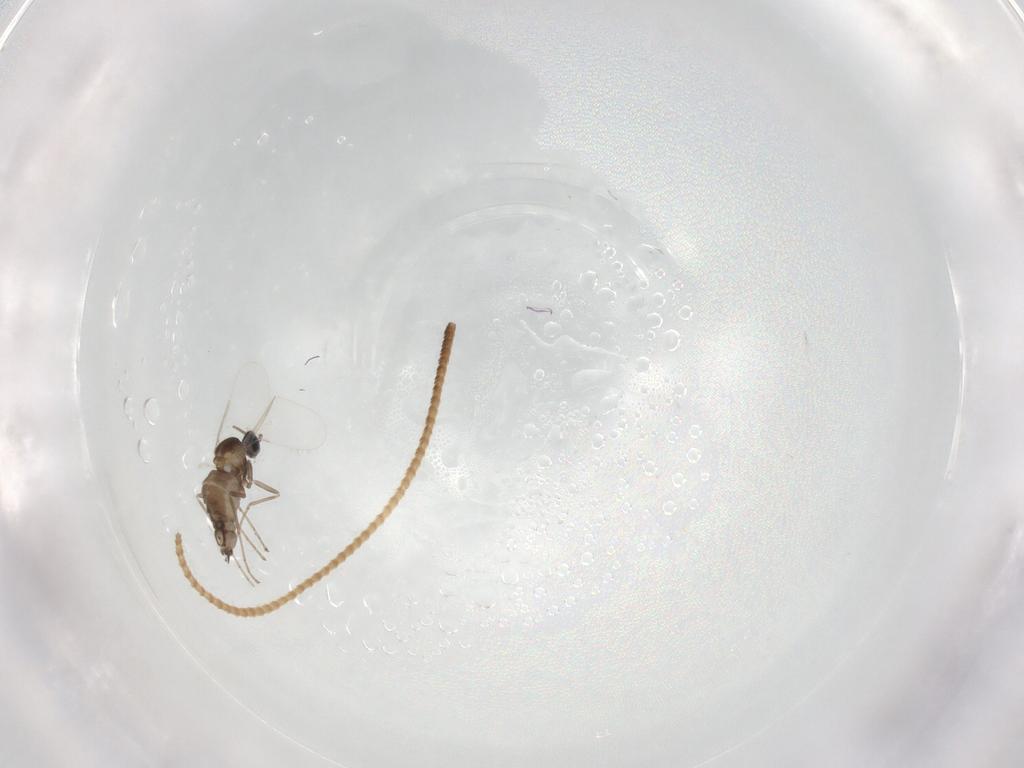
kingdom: Animalia
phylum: Arthropoda
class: Insecta
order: Diptera
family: Cecidomyiidae
